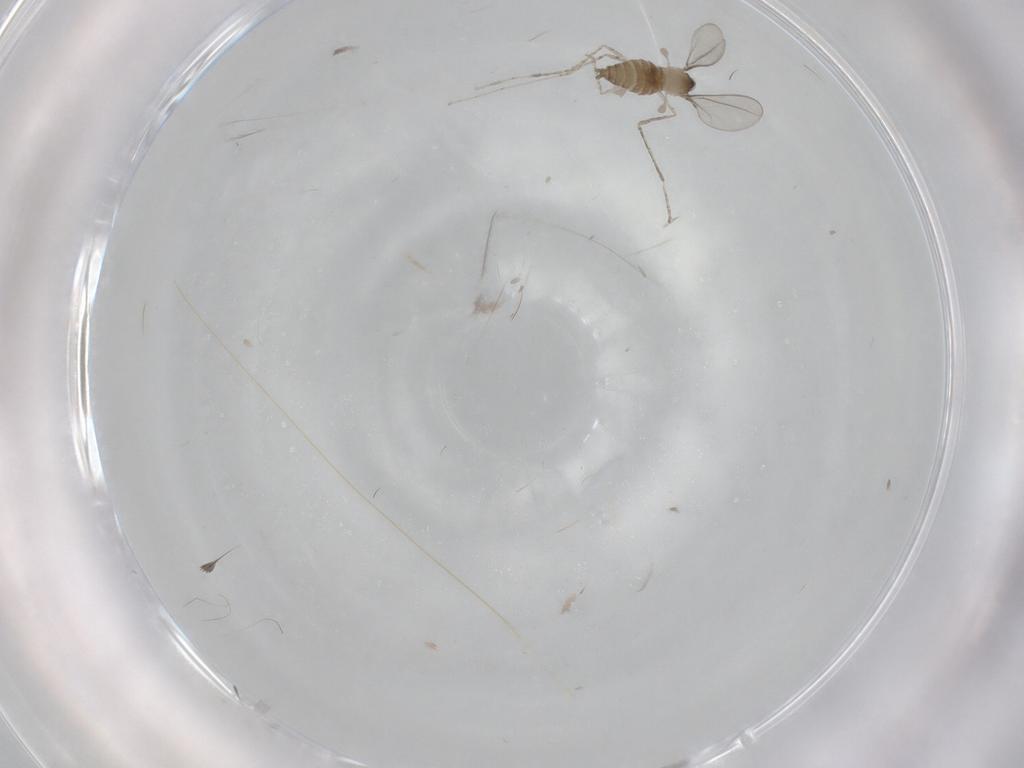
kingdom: Animalia
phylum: Arthropoda
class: Insecta
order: Diptera
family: Cecidomyiidae
